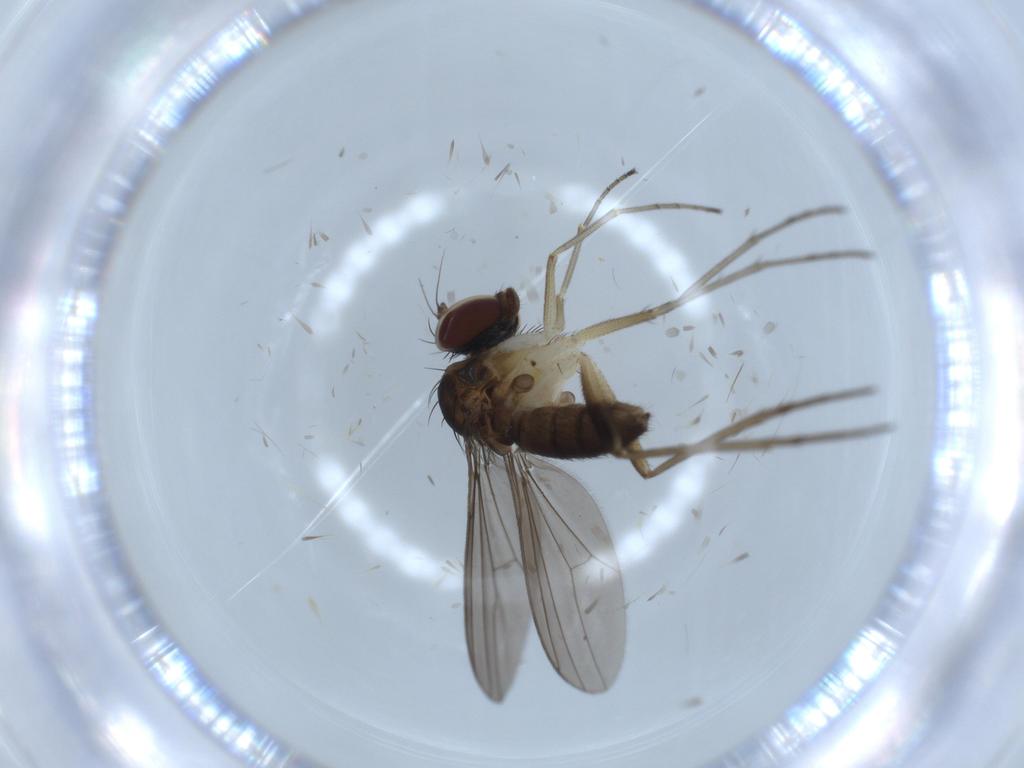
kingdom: Animalia
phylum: Arthropoda
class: Insecta
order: Diptera
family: Dolichopodidae
